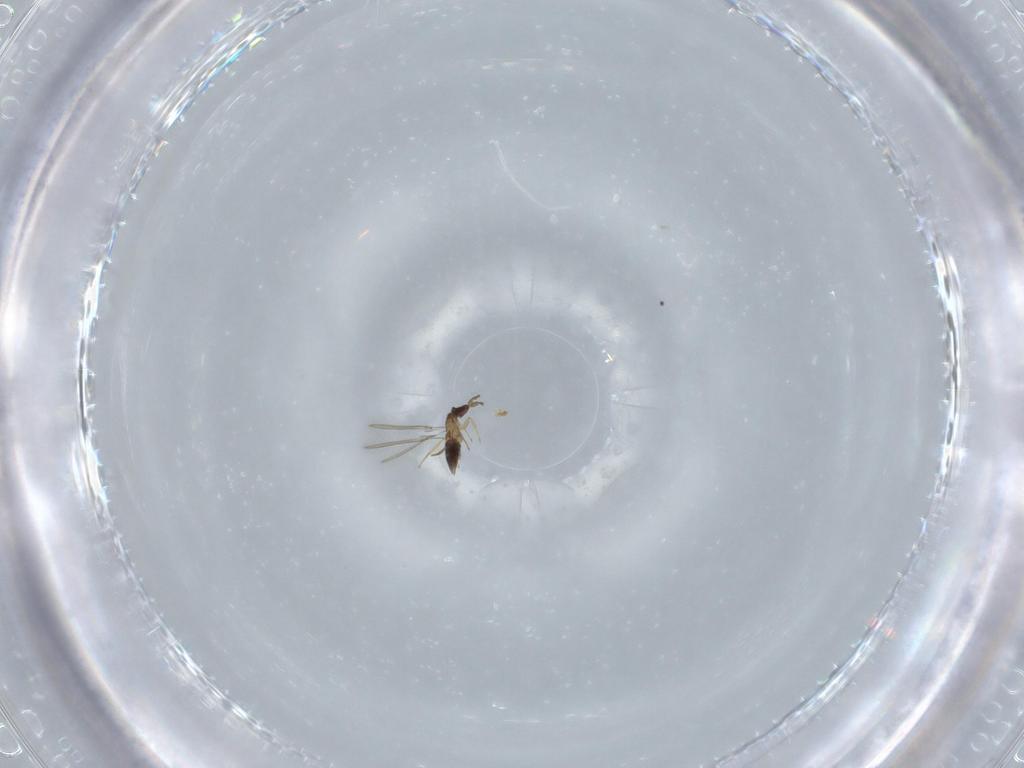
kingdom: Animalia
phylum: Arthropoda
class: Insecta
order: Hymenoptera
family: Mymaridae
